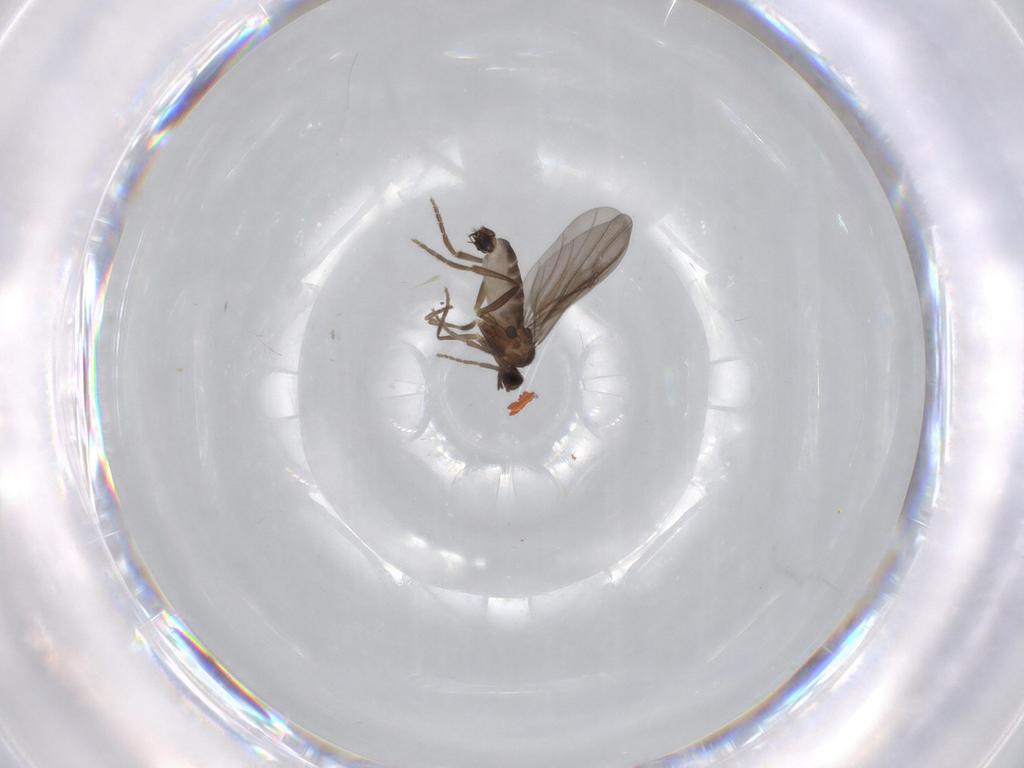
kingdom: Animalia
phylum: Arthropoda
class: Insecta
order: Diptera
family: Phoridae
